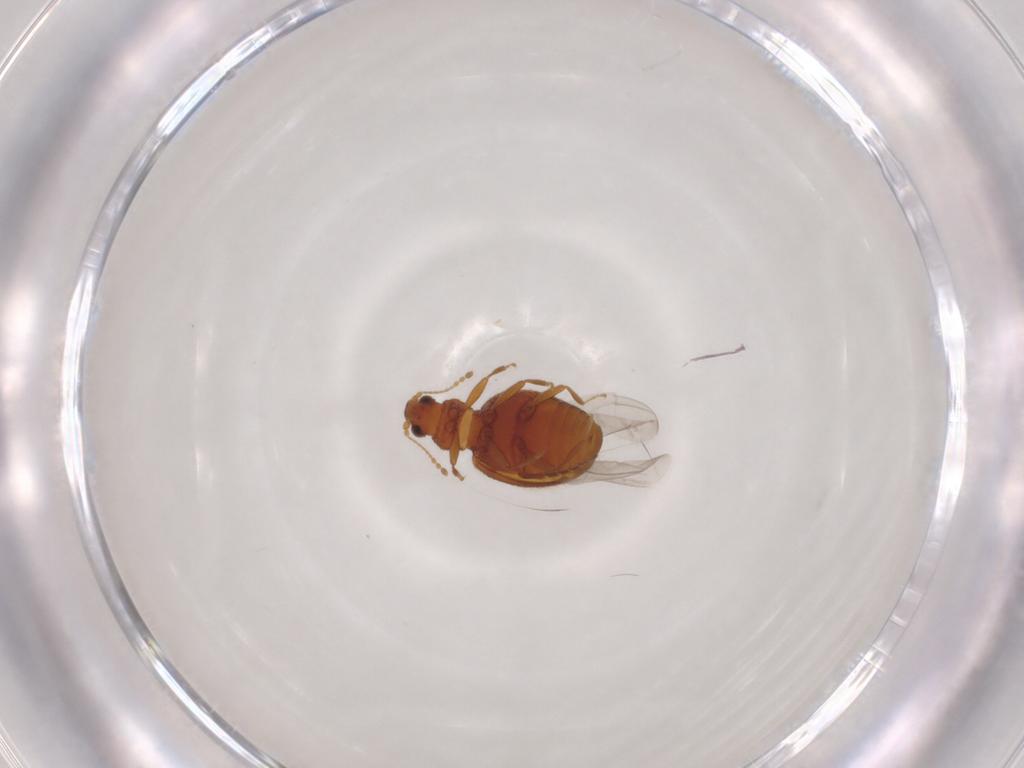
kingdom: Animalia
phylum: Arthropoda
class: Insecta
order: Coleoptera
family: Latridiidae
